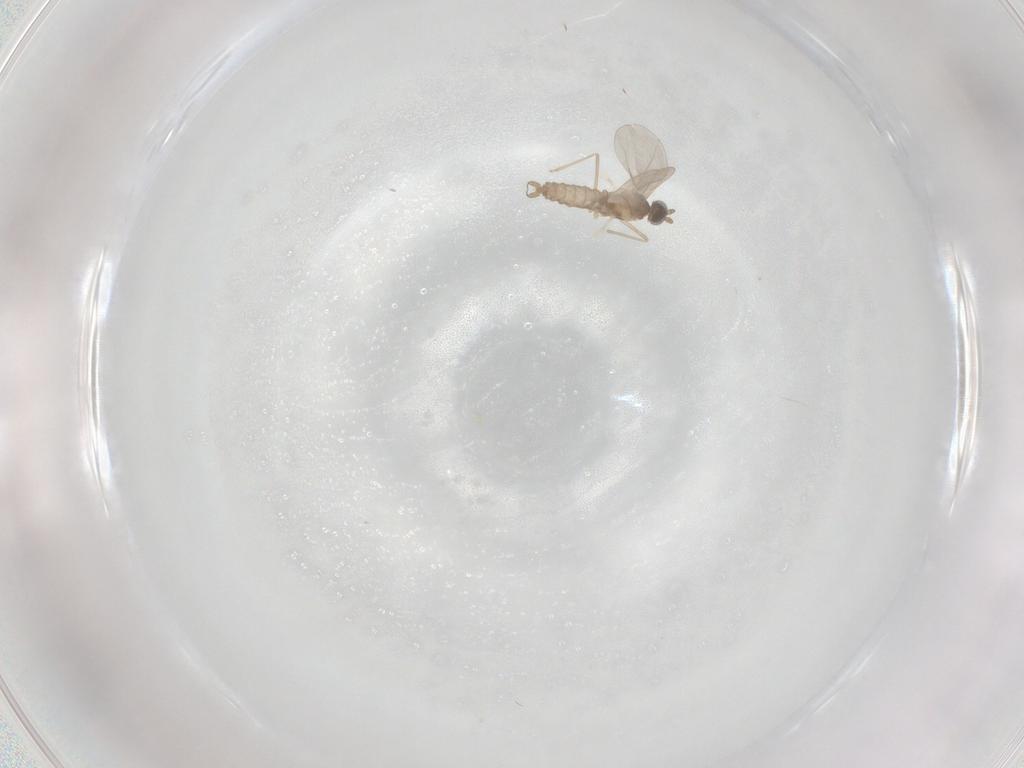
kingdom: Animalia
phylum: Arthropoda
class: Insecta
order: Diptera
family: Cecidomyiidae
